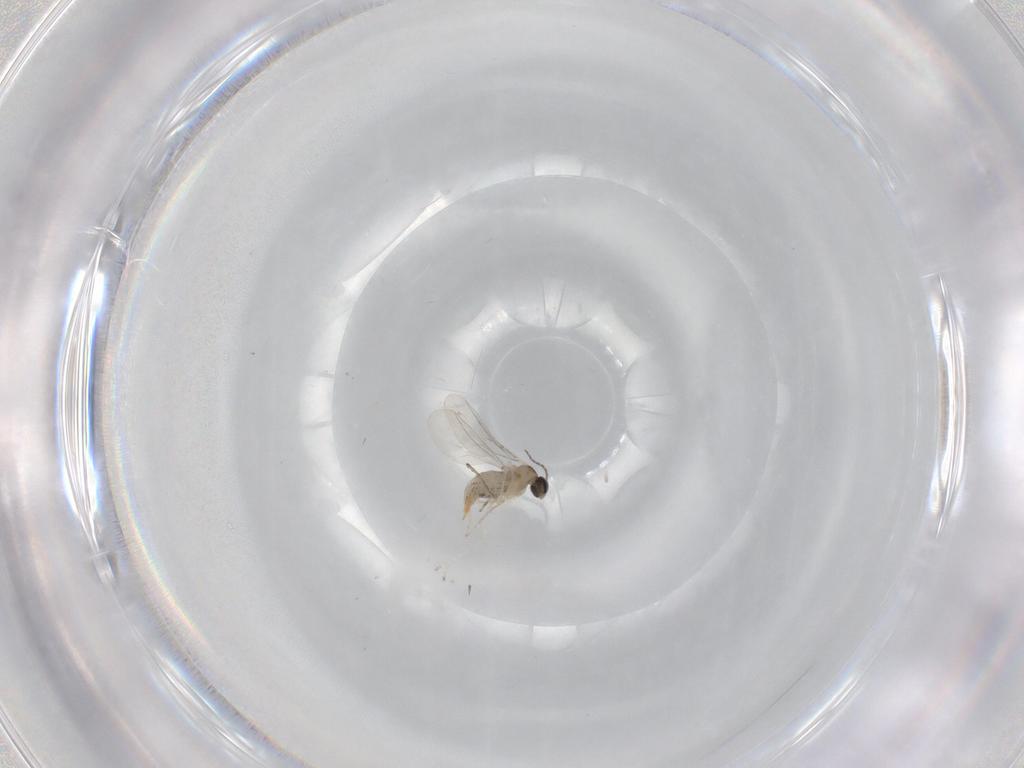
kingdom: Animalia
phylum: Arthropoda
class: Insecta
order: Diptera
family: Cecidomyiidae
